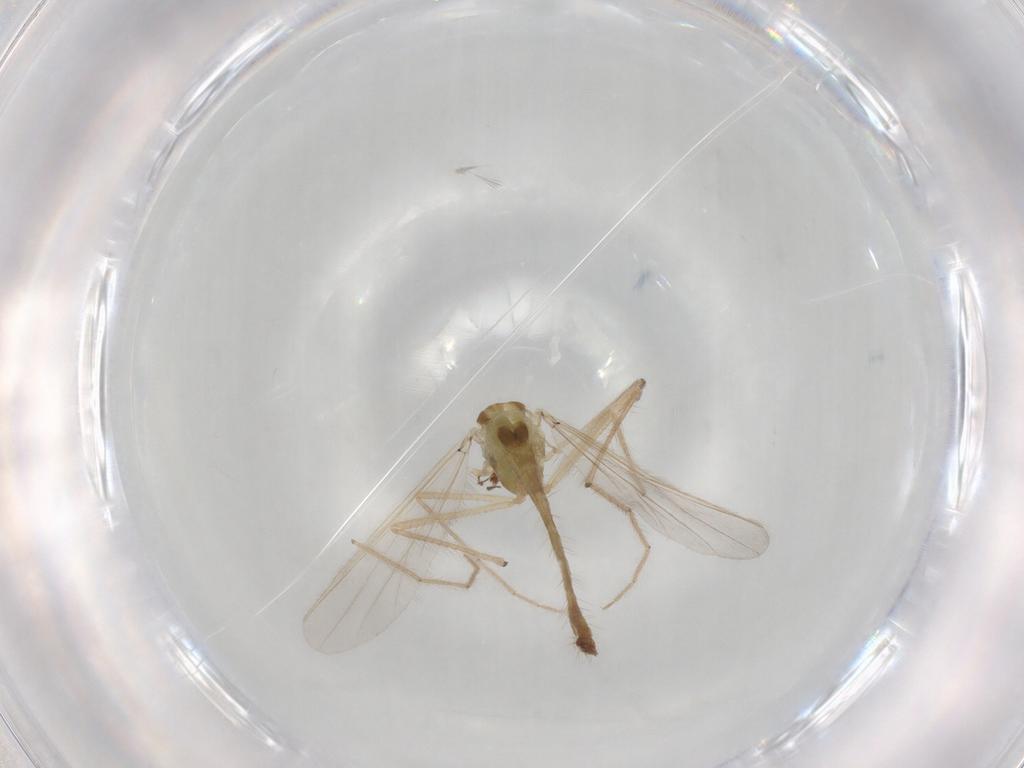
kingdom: Animalia
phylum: Arthropoda
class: Insecta
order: Diptera
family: Chironomidae
